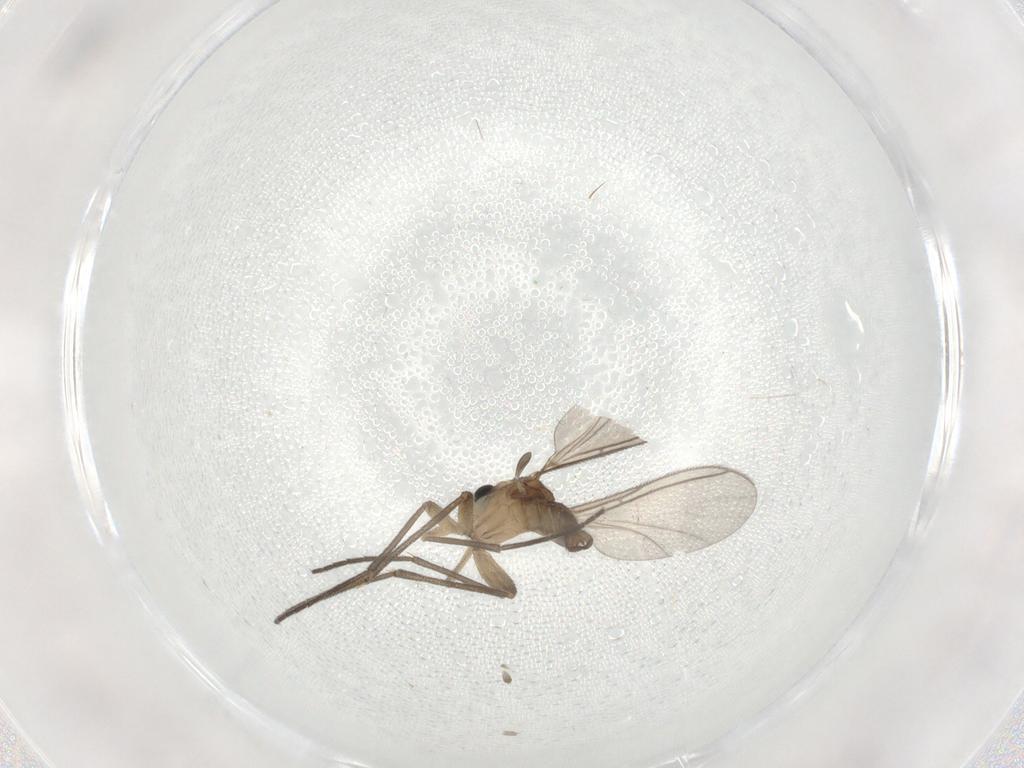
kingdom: Animalia
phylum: Arthropoda
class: Insecta
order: Diptera
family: Sciaridae
